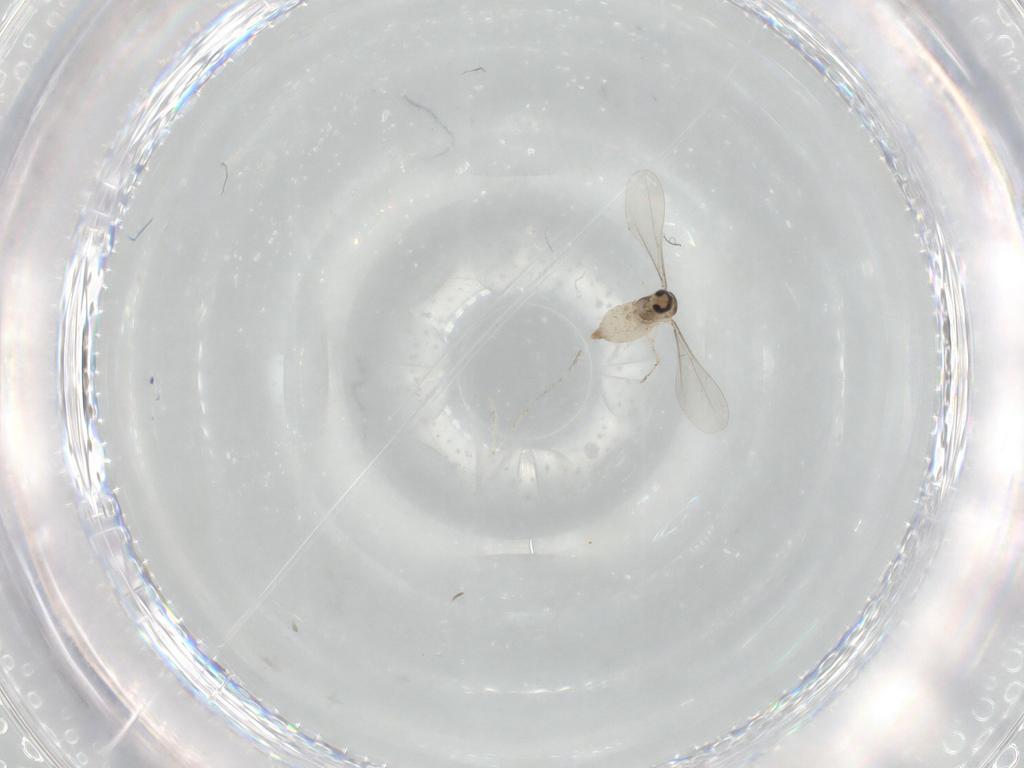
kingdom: Animalia
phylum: Arthropoda
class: Insecta
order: Diptera
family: Cecidomyiidae
